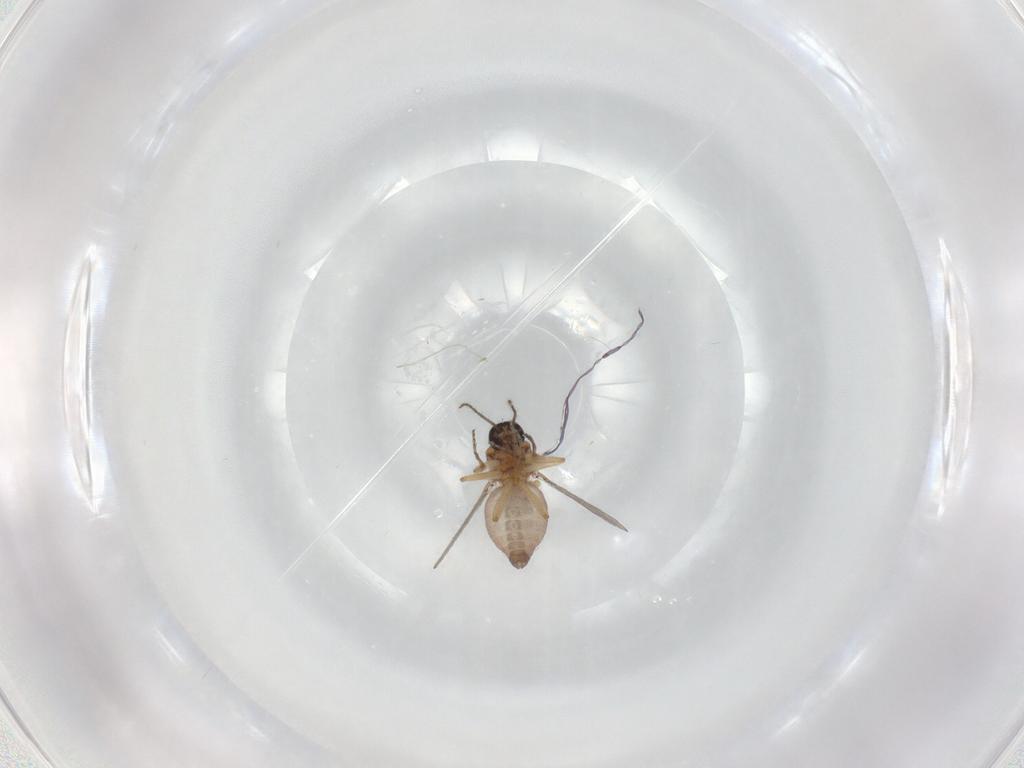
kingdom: Animalia
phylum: Arthropoda
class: Insecta
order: Diptera
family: Ceratopogonidae
